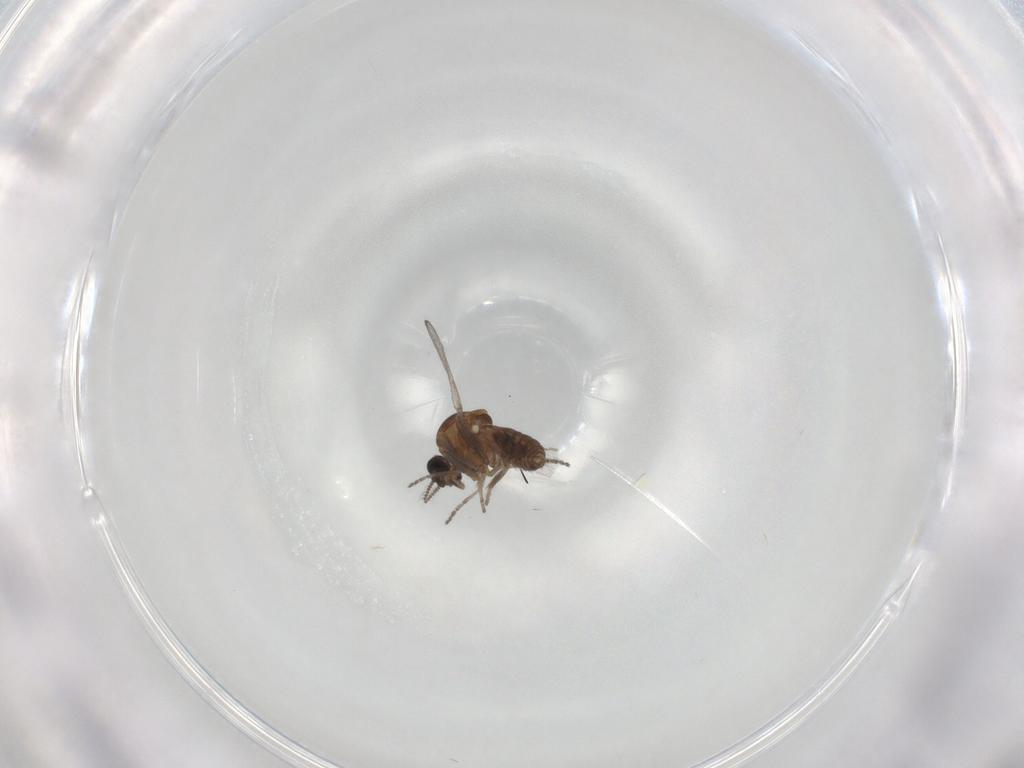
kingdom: Animalia
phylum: Arthropoda
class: Insecta
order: Diptera
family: Ceratopogonidae
